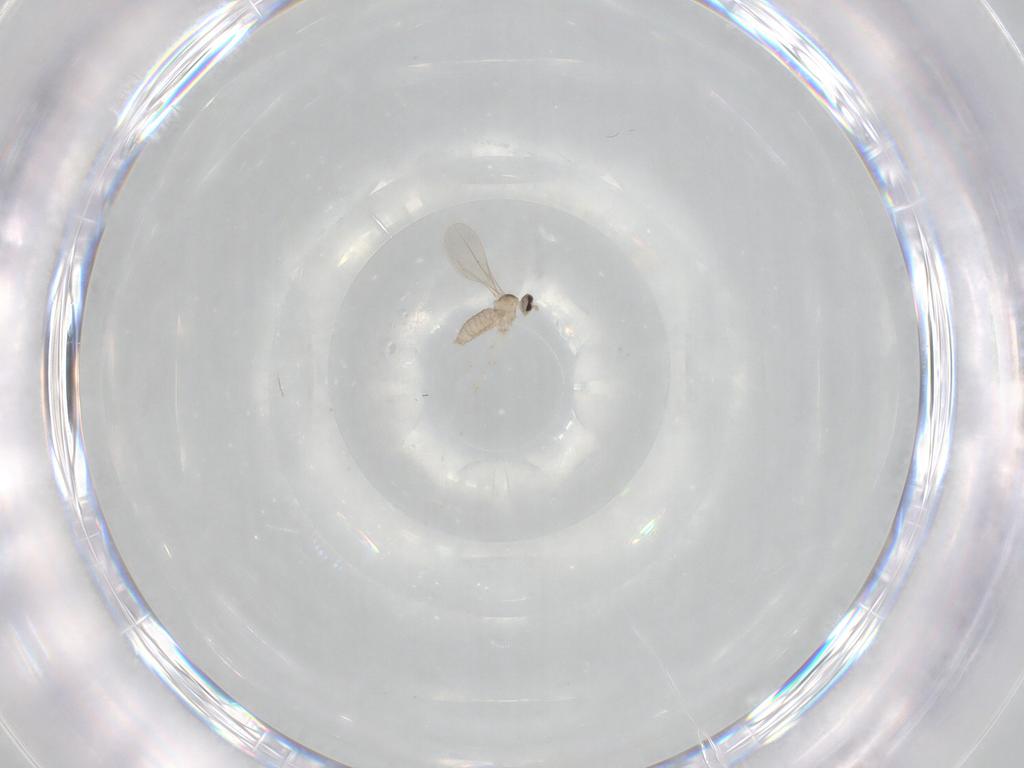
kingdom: Animalia
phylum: Arthropoda
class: Insecta
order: Diptera
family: Cecidomyiidae
